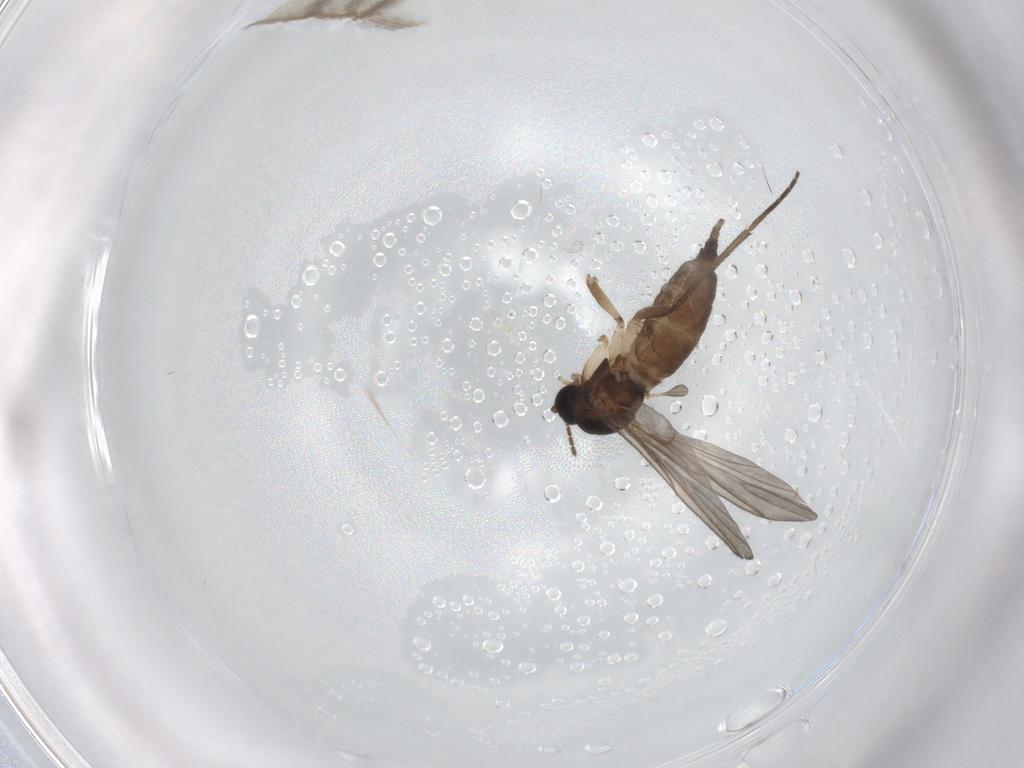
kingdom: Animalia
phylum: Arthropoda
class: Insecta
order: Diptera
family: Sciaridae
